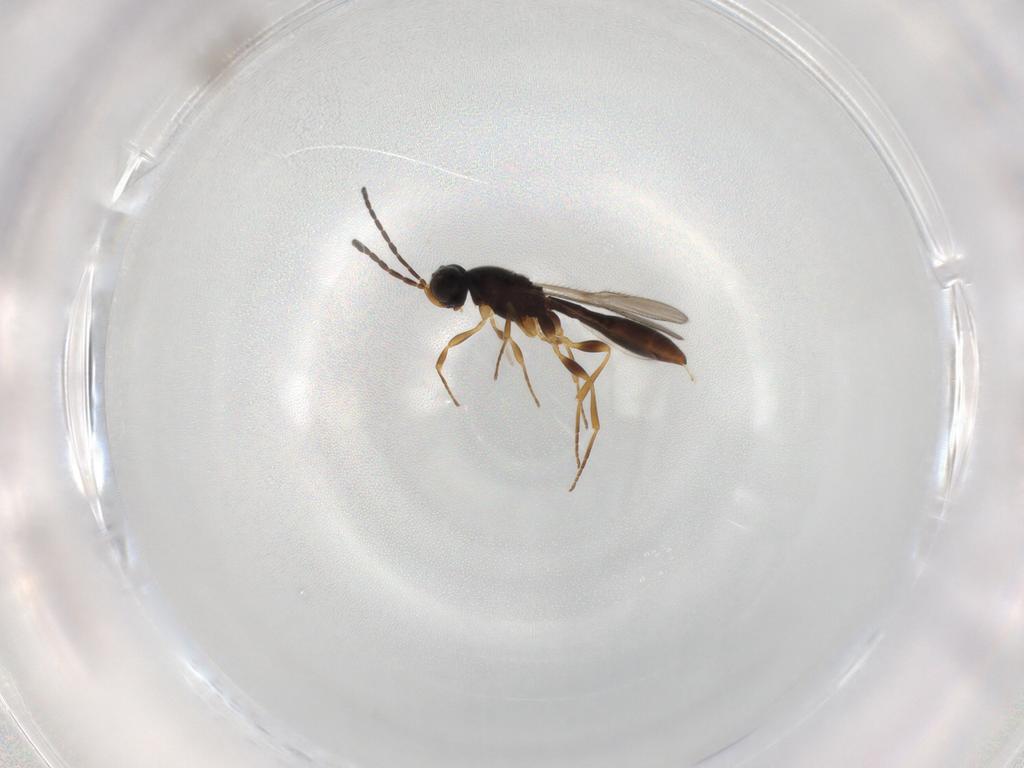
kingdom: Animalia
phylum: Arthropoda
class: Insecta
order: Hymenoptera
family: Scelionidae
